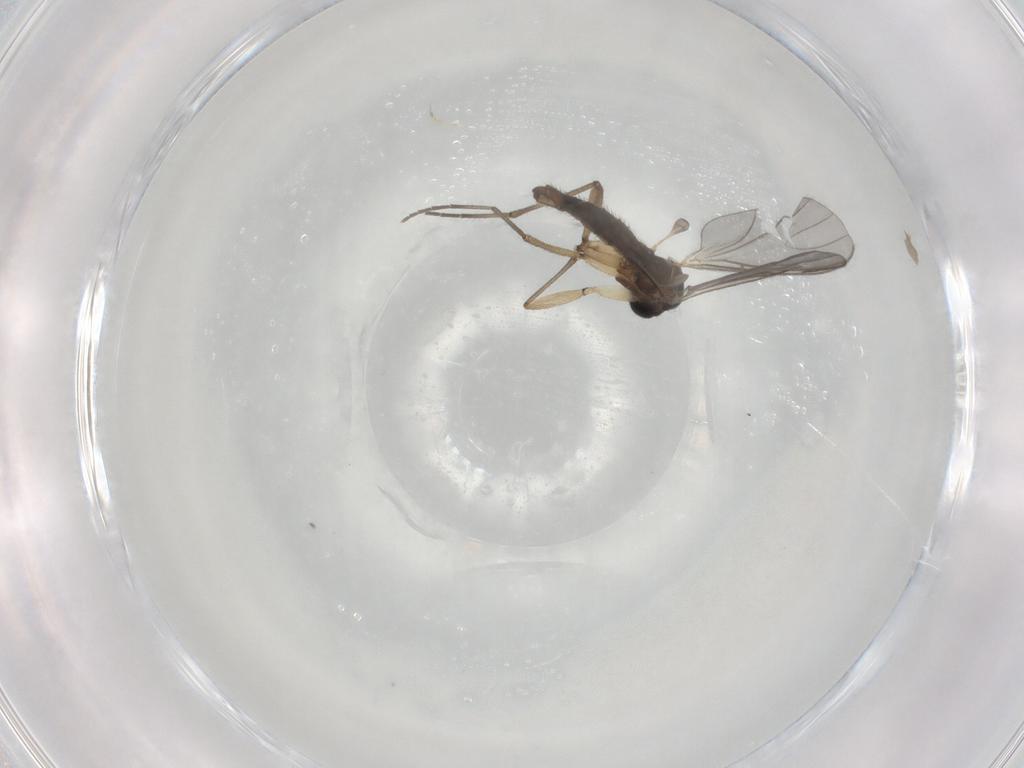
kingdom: Animalia
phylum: Arthropoda
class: Insecta
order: Diptera
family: Sciaridae
